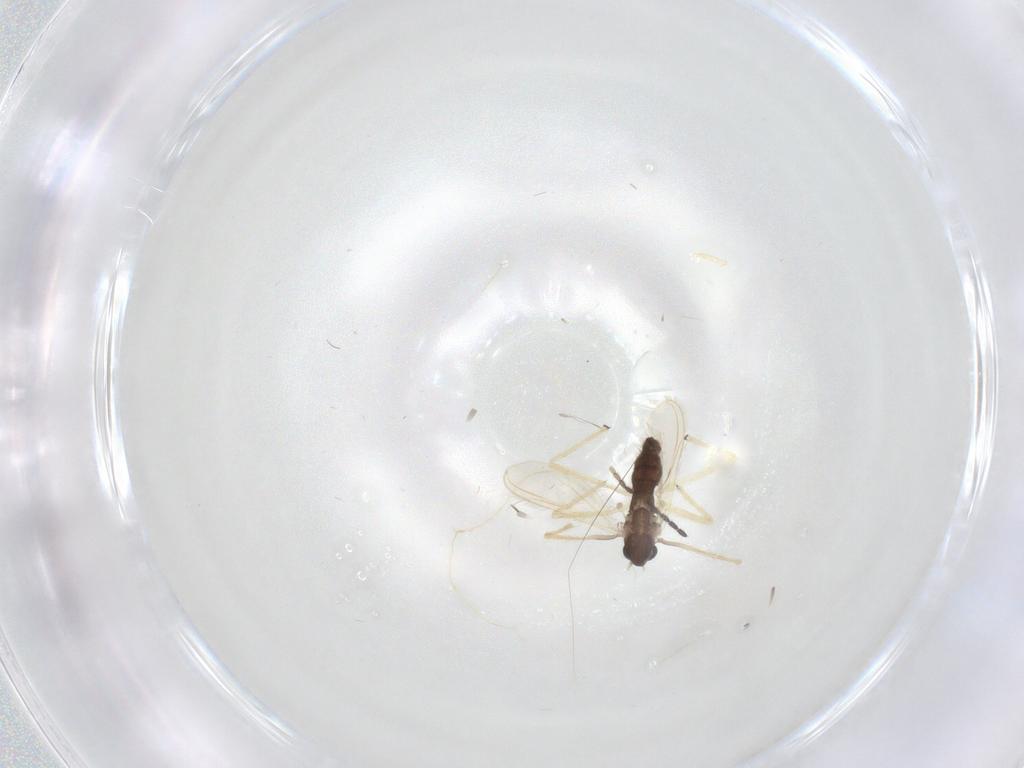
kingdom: Animalia
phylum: Arthropoda
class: Insecta
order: Diptera
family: Chironomidae
